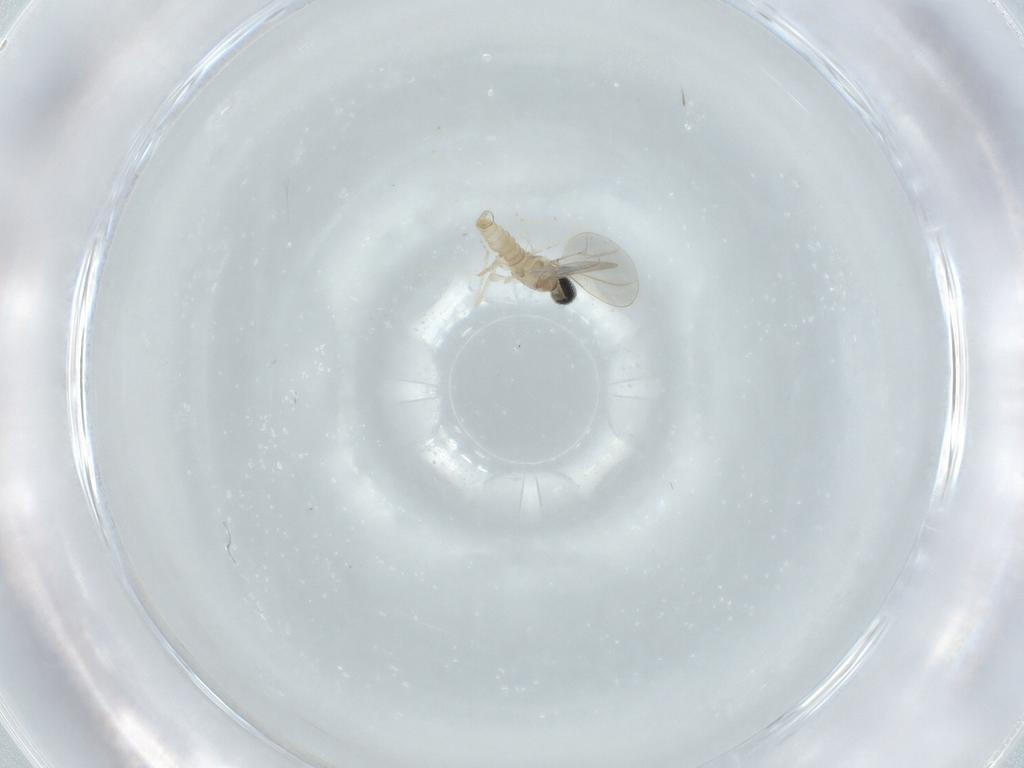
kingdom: Animalia
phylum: Arthropoda
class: Insecta
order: Diptera
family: Cecidomyiidae
